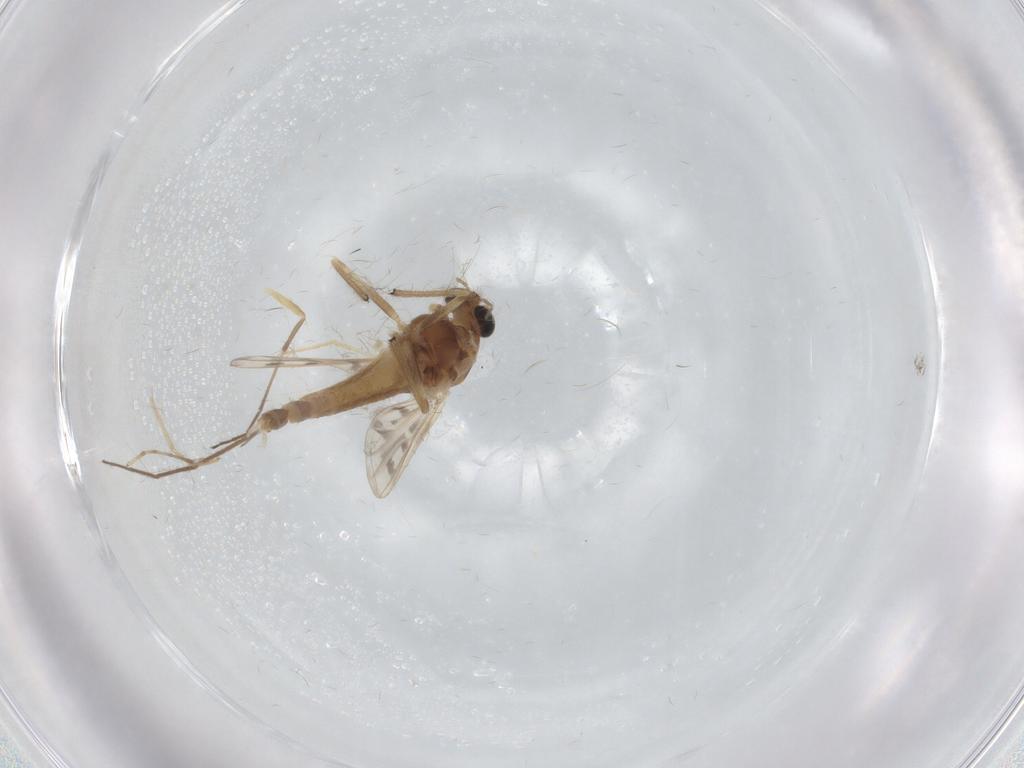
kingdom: Animalia
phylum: Arthropoda
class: Insecta
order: Diptera
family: Chironomidae
